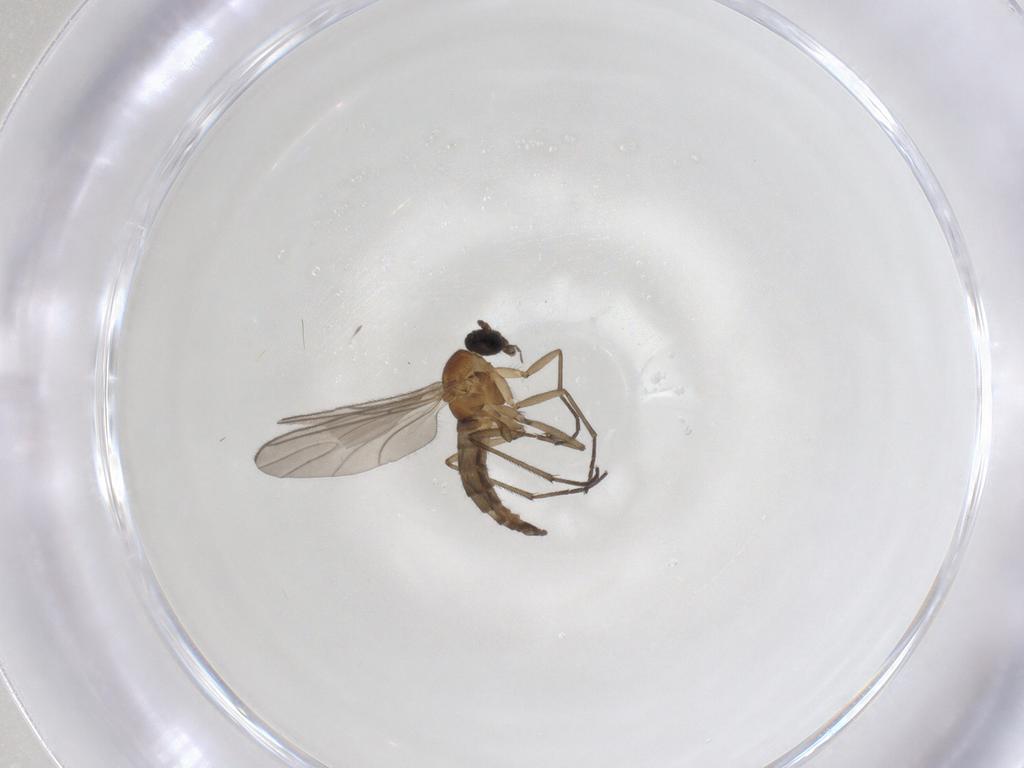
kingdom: Animalia
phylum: Arthropoda
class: Insecta
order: Diptera
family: Sciaridae
